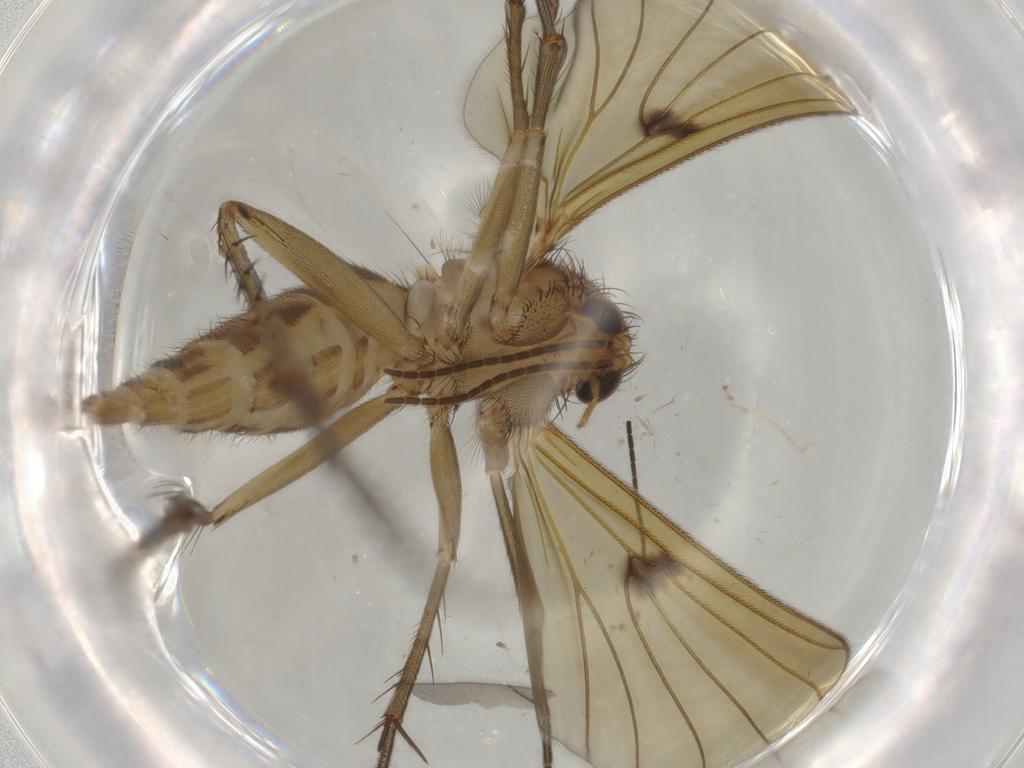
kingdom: Animalia
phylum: Arthropoda
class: Insecta
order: Diptera
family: Mycetophilidae
